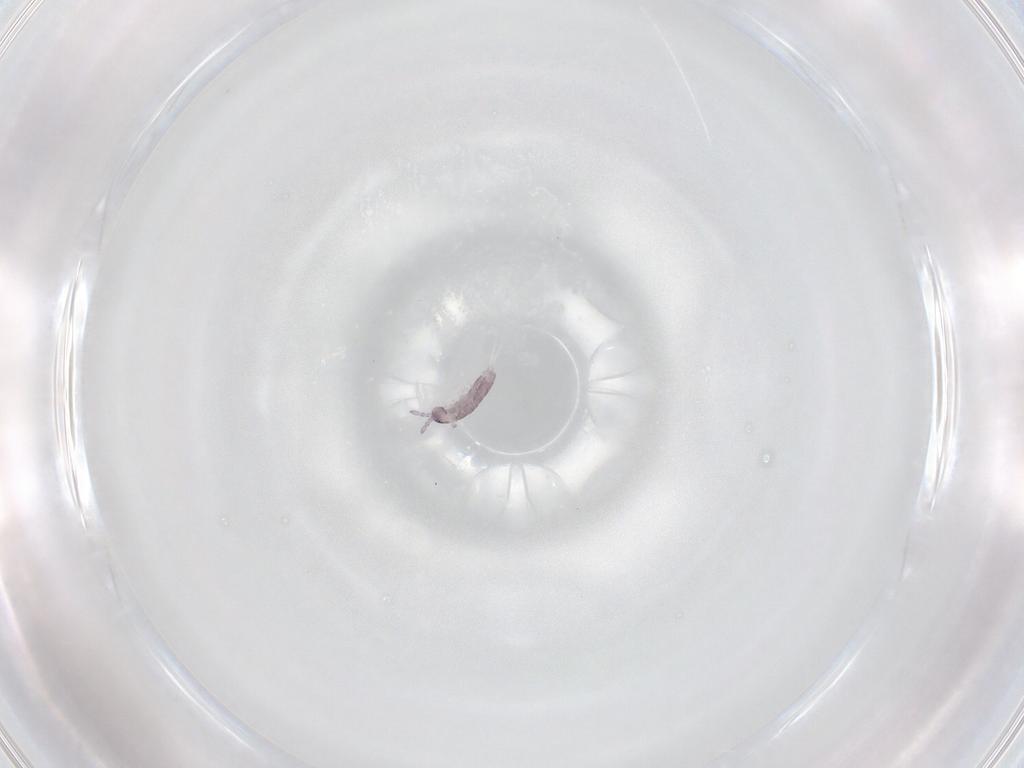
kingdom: Animalia
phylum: Arthropoda
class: Collembola
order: Entomobryomorpha
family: Isotomidae
